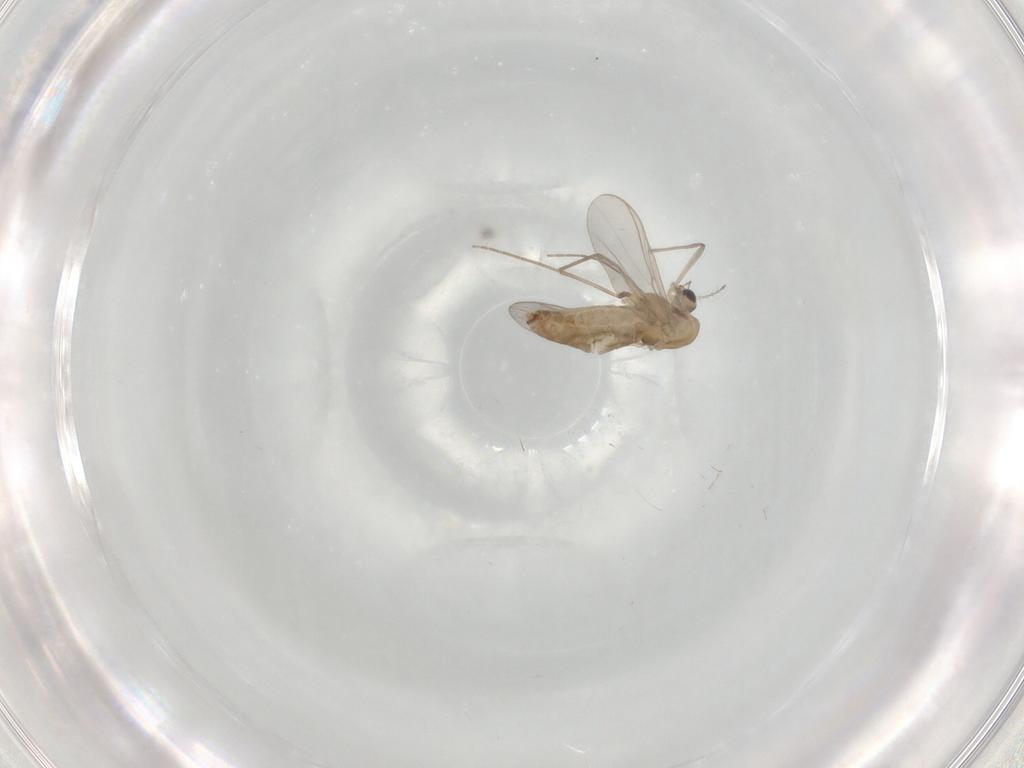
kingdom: Animalia
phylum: Arthropoda
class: Insecta
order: Diptera
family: Chironomidae
